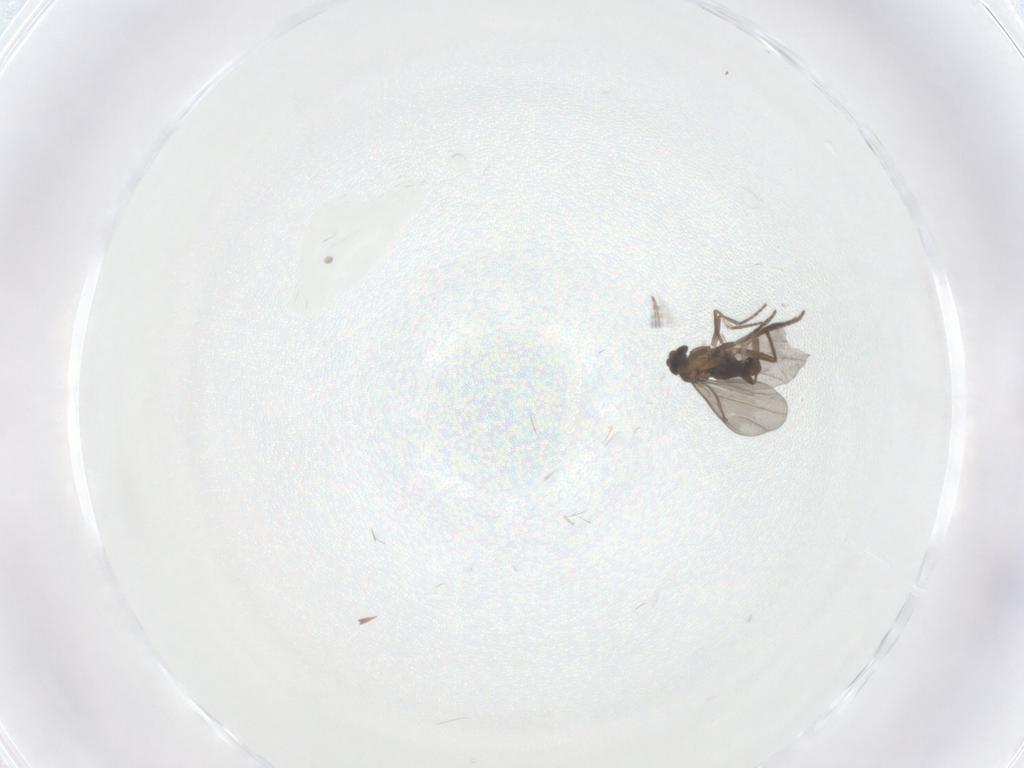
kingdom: Animalia
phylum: Arthropoda
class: Insecta
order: Diptera
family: Phoridae
